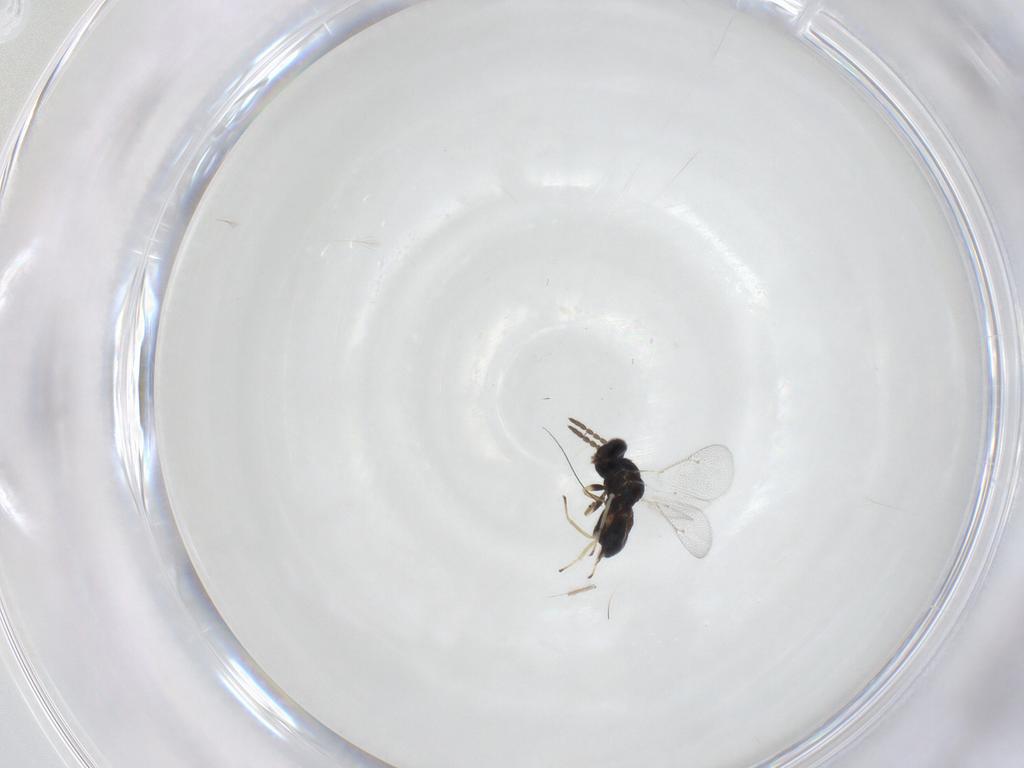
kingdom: Animalia
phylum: Arthropoda
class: Insecta
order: Hymenoptera
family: Eulophidae
